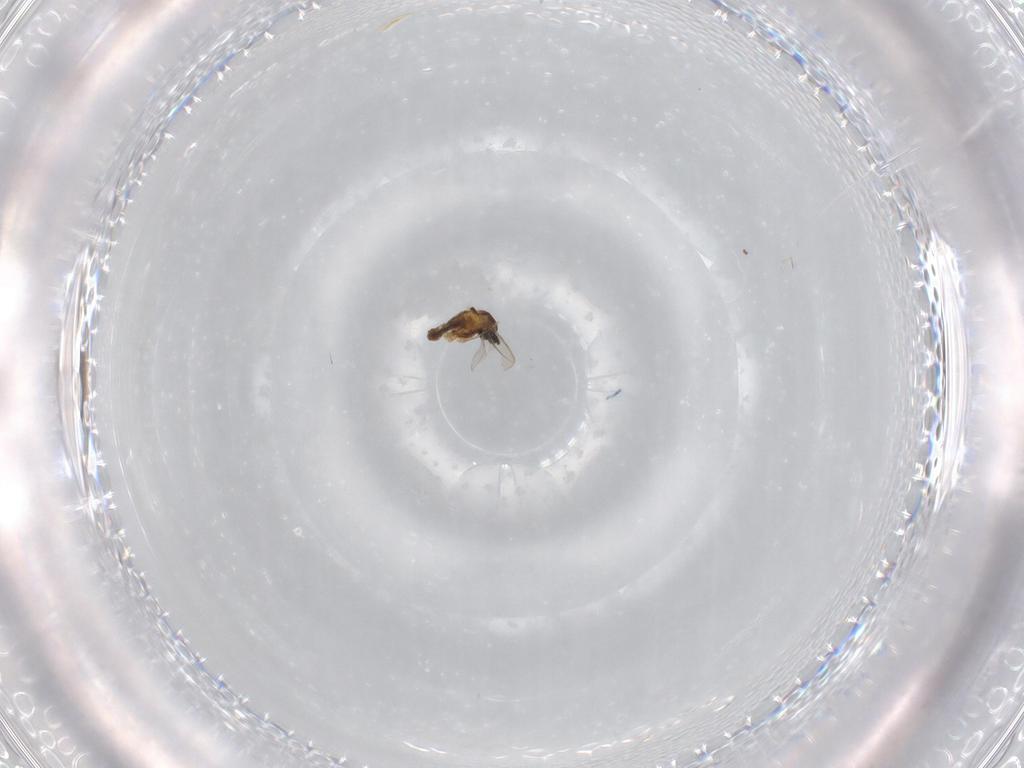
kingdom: Animalia
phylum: Arthropoda
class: Insecta
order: Diptera
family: Cecidomyiidae
